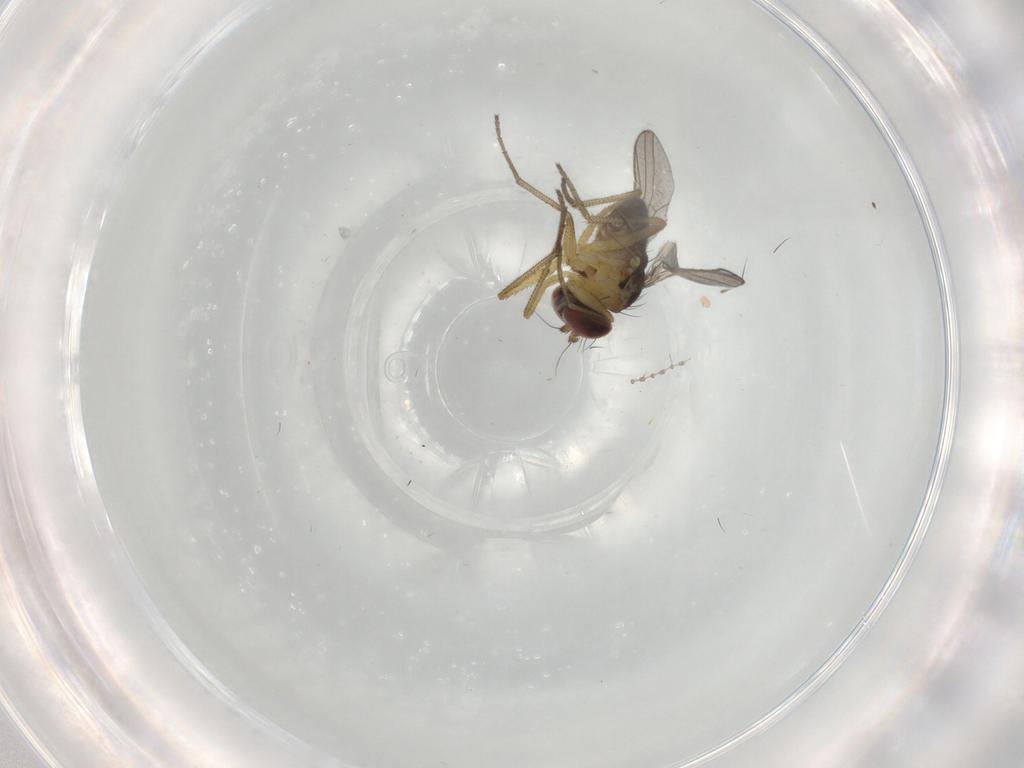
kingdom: Animalia
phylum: Arthropoda
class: Insecta
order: Diptera
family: Dolichopodidae
